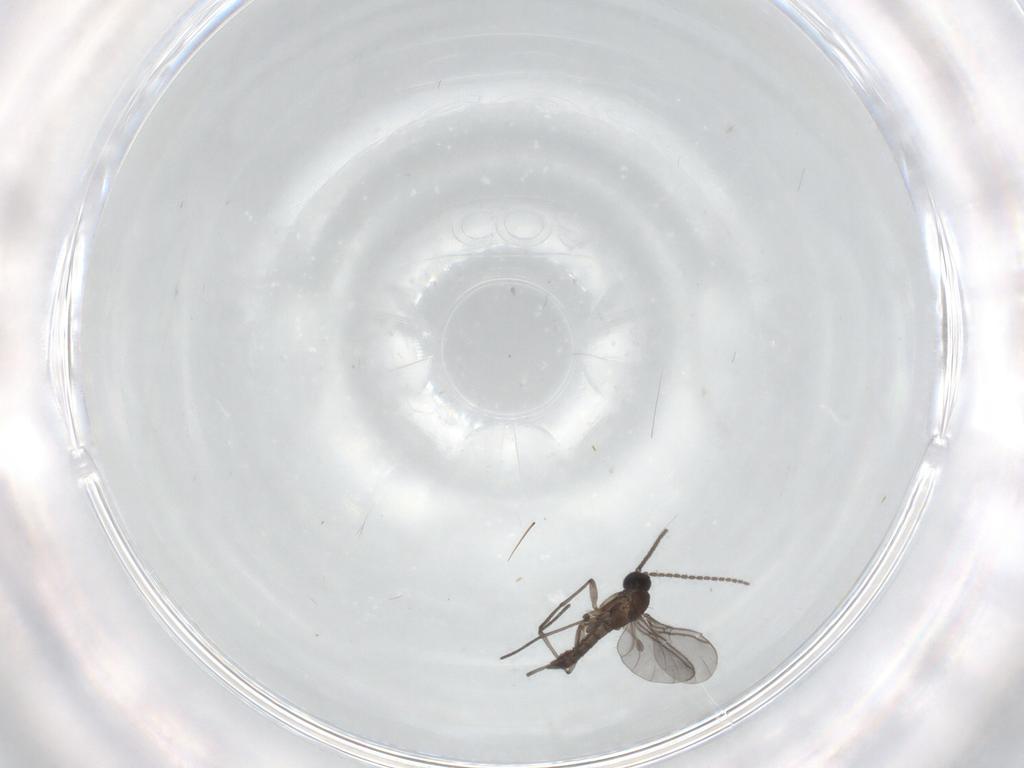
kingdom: Animalia
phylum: Arthropoda
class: Insecta
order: Diptera
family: Sciaridae
